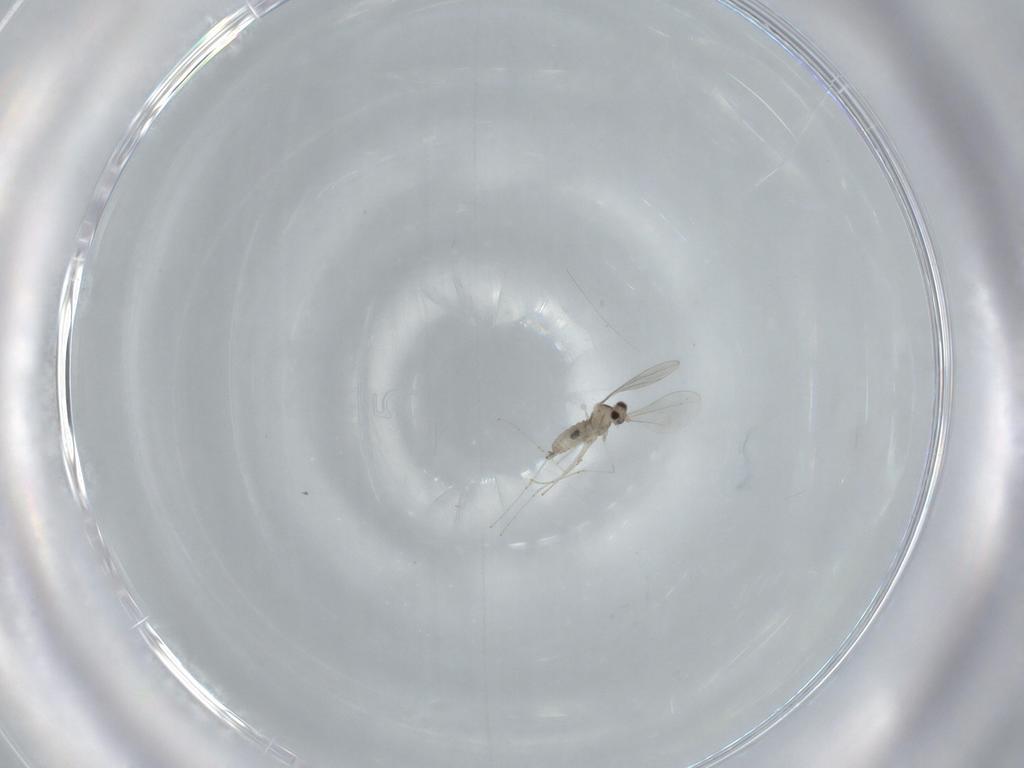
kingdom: Animalia
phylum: Arthropoda
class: Insecta
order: Diptera
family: Cecidomyiidae
